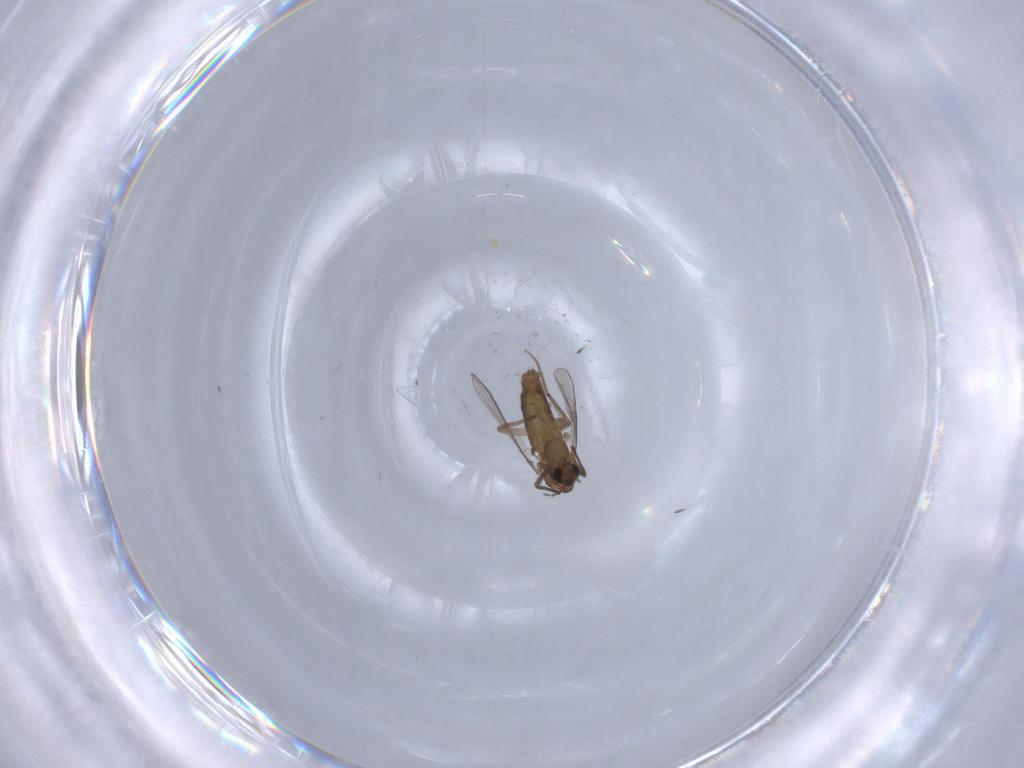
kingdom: Animalia
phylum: Arthropoda
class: Insecta
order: Diptera
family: Chironomidae
